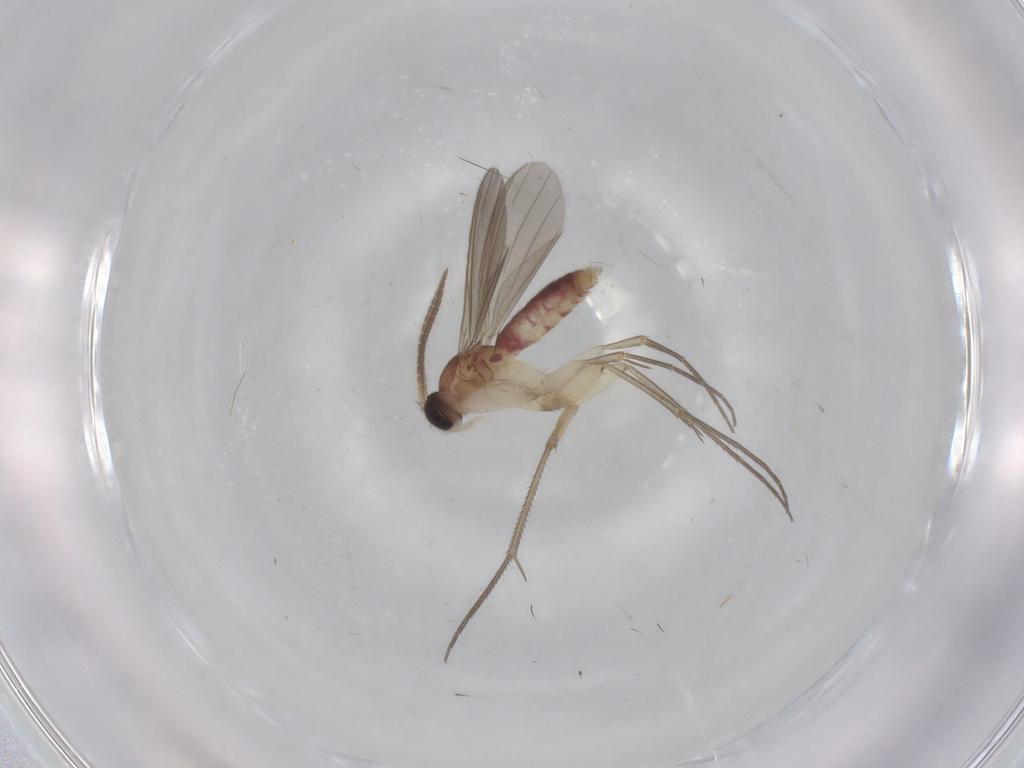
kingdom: Animalia
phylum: Arthropoda
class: Insecta
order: Diptera
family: Mycetophilidae
